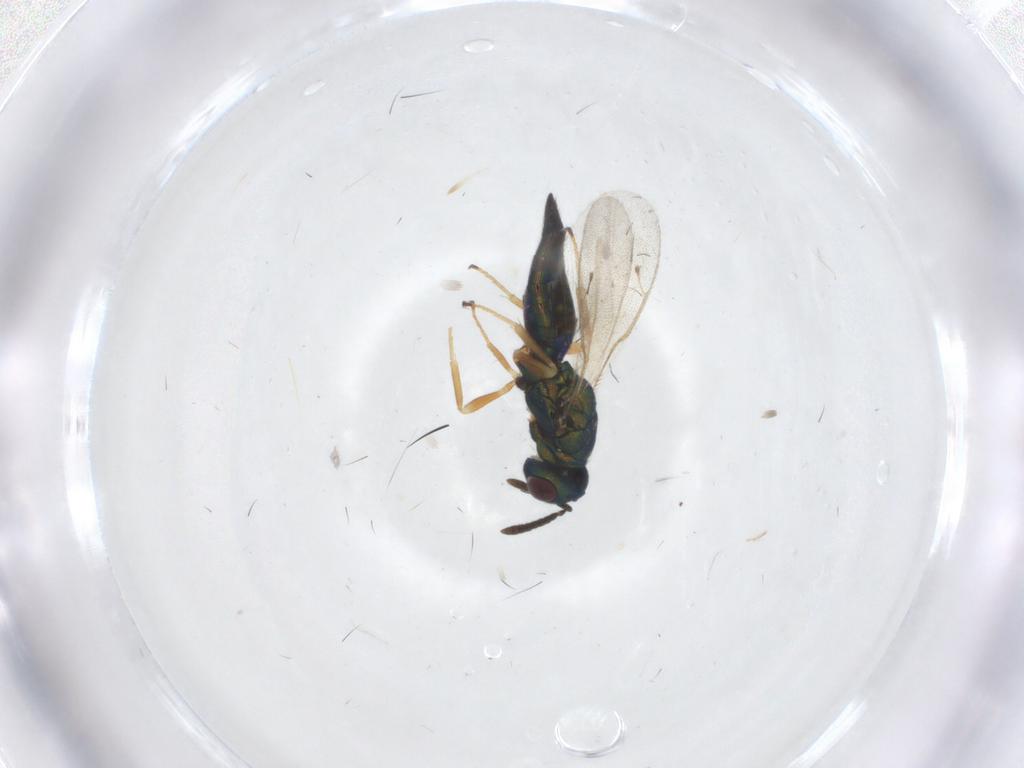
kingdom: Animalia
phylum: Arthropoda
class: Insecta
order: Hymenoptera
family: Pteromalidae
